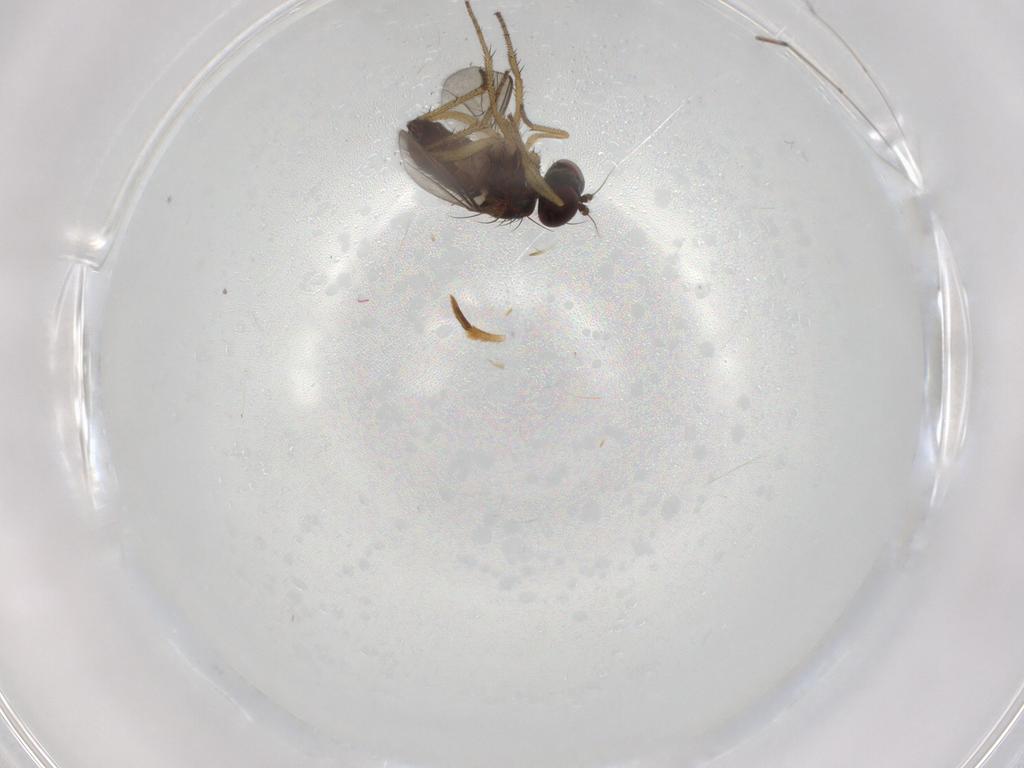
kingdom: Animalia
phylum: Arthropoda
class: Insecta
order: Diptera
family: Dolichopodidae
